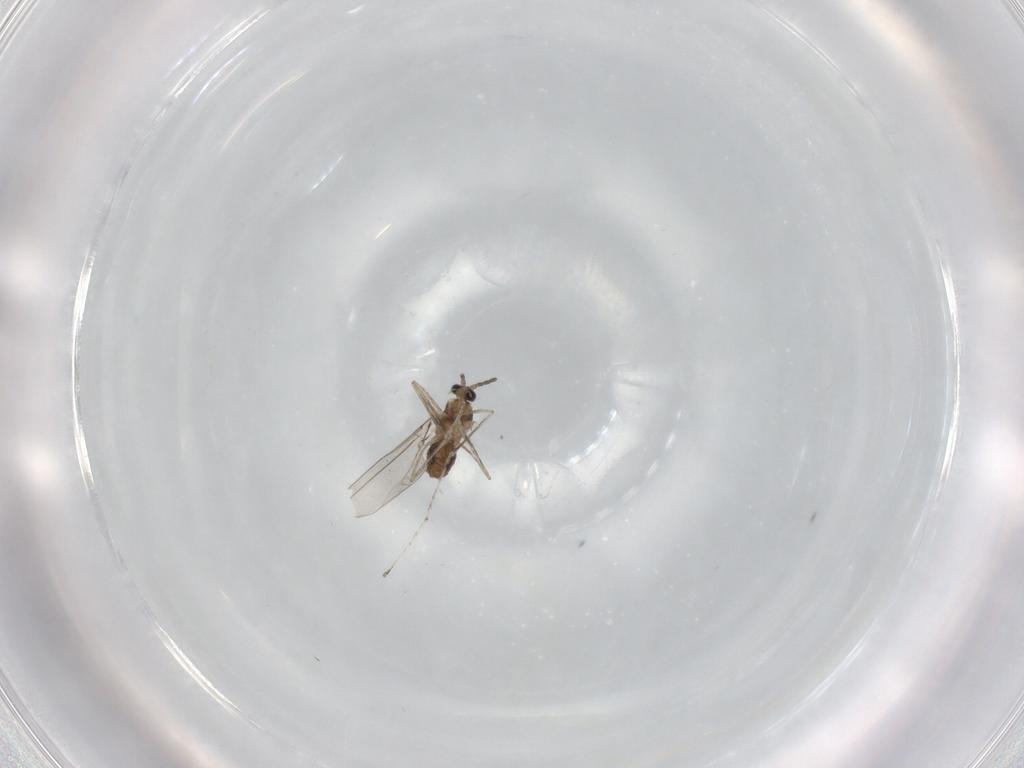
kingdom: Animalia
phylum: Arthropoda
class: Insecta
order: Diptera
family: Cecidomyiidae
